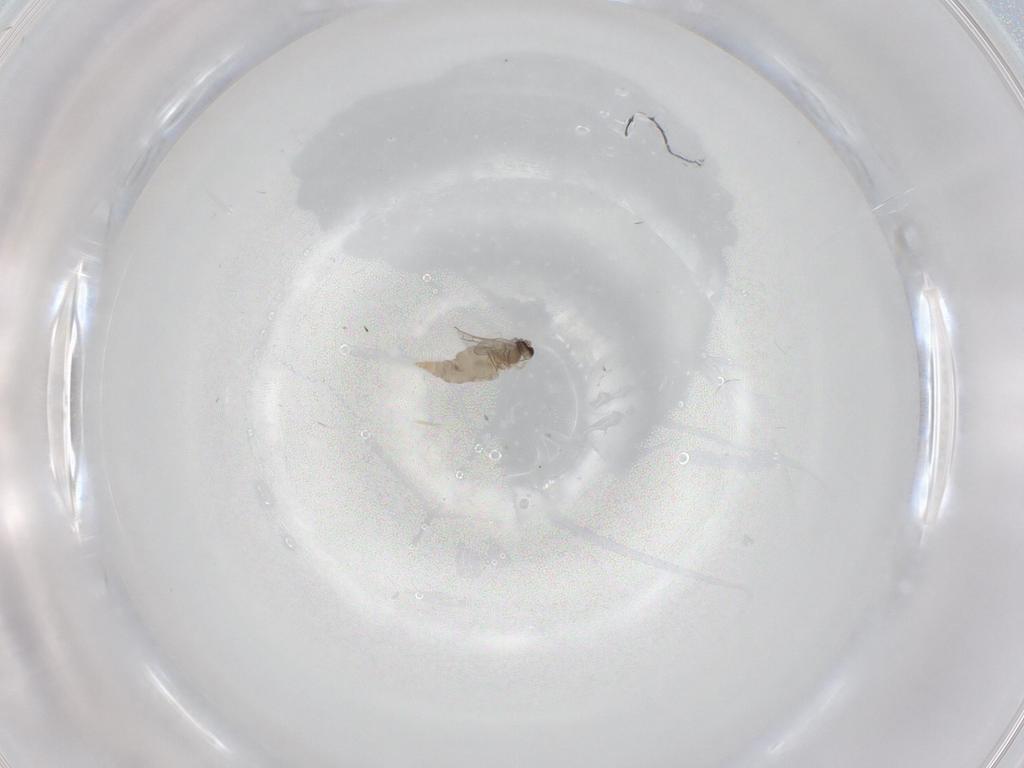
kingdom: Animalia
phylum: Arthropoda
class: Insecta
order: Diptera
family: Cecidomyiidae
